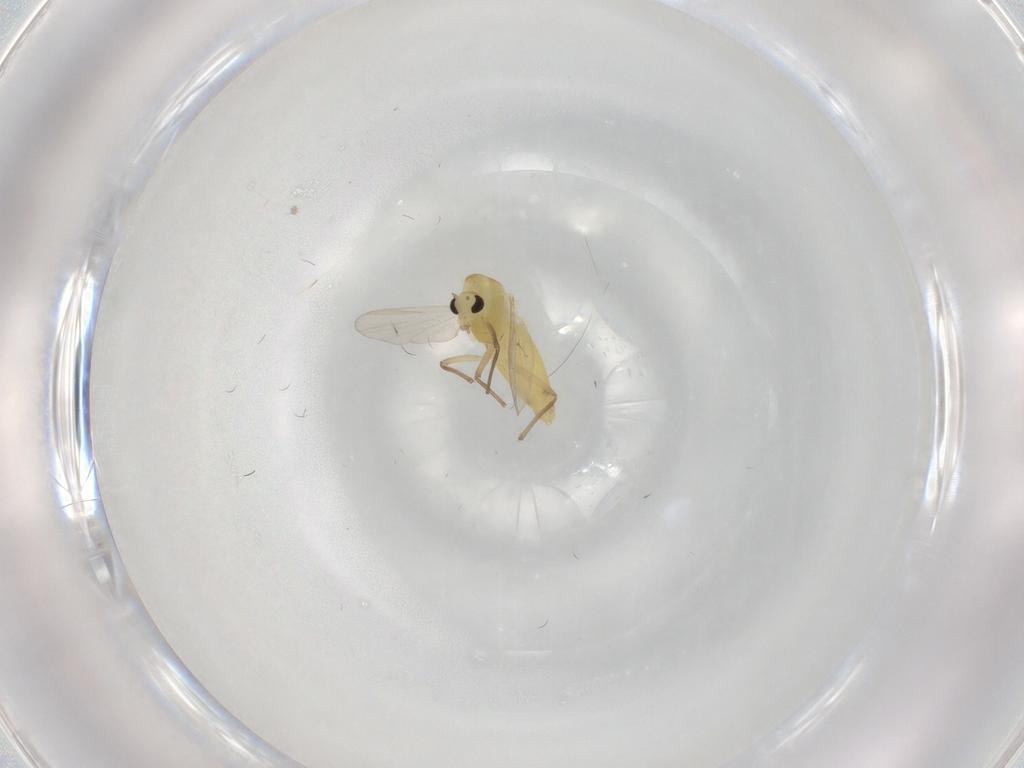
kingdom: Animalia
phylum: Arthropoda
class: Insecta
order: Diptera
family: Chironomidae
